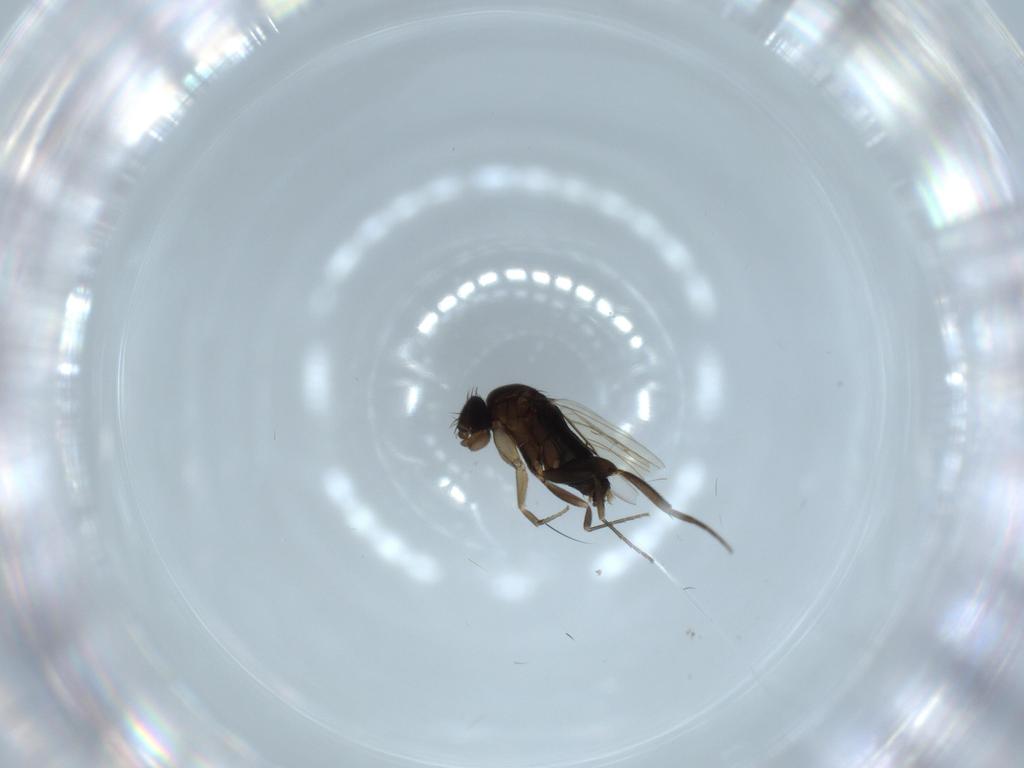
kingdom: Animalia
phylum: Arthropoda
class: Insecta
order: Diptera
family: Phoridae
